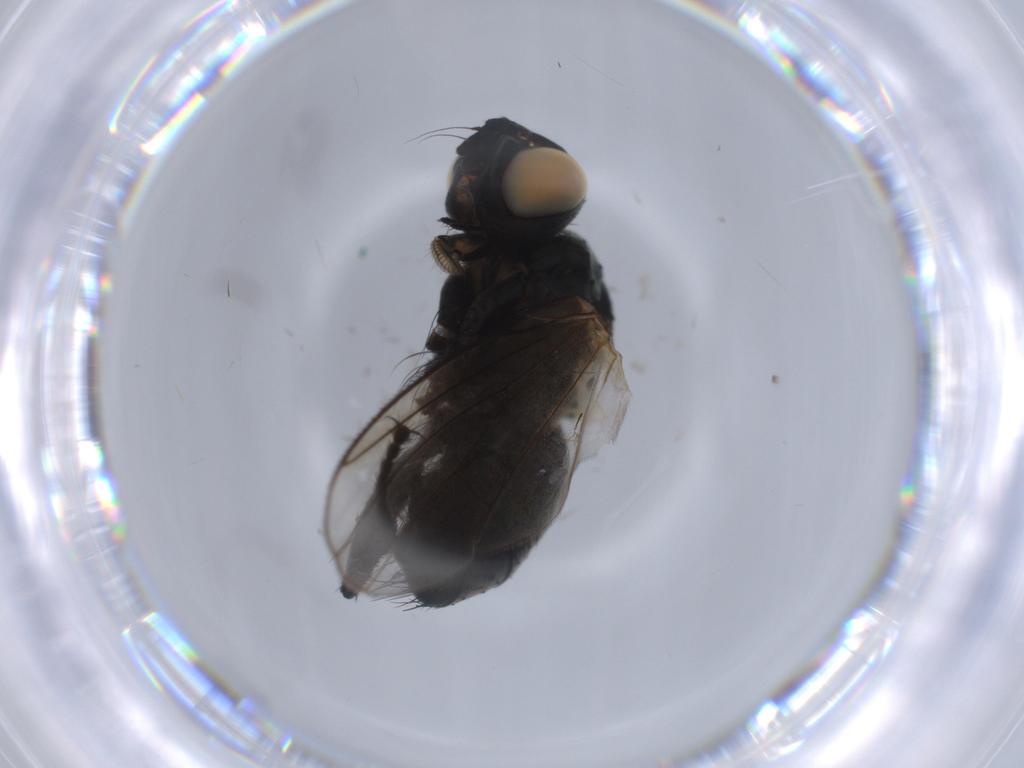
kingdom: Animalia
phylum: Arthropoda
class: Insecta
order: Diptera
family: Muscidae
